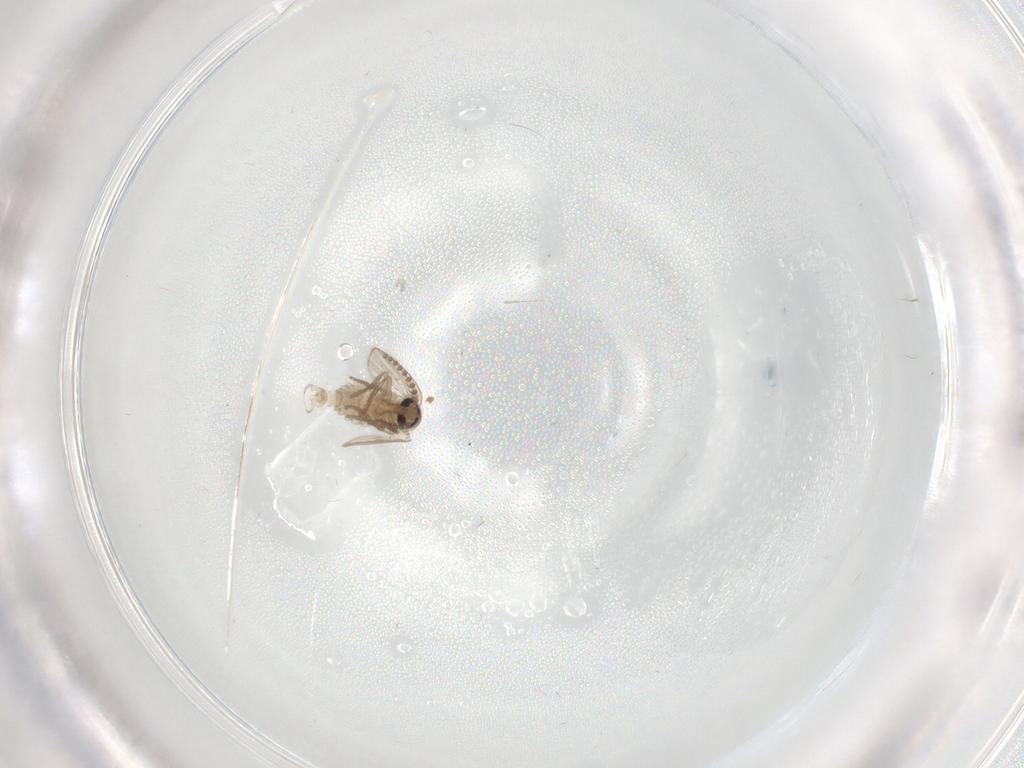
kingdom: Animalia
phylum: Arthropoda
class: Insecta
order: Diptera
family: Psychodidae
